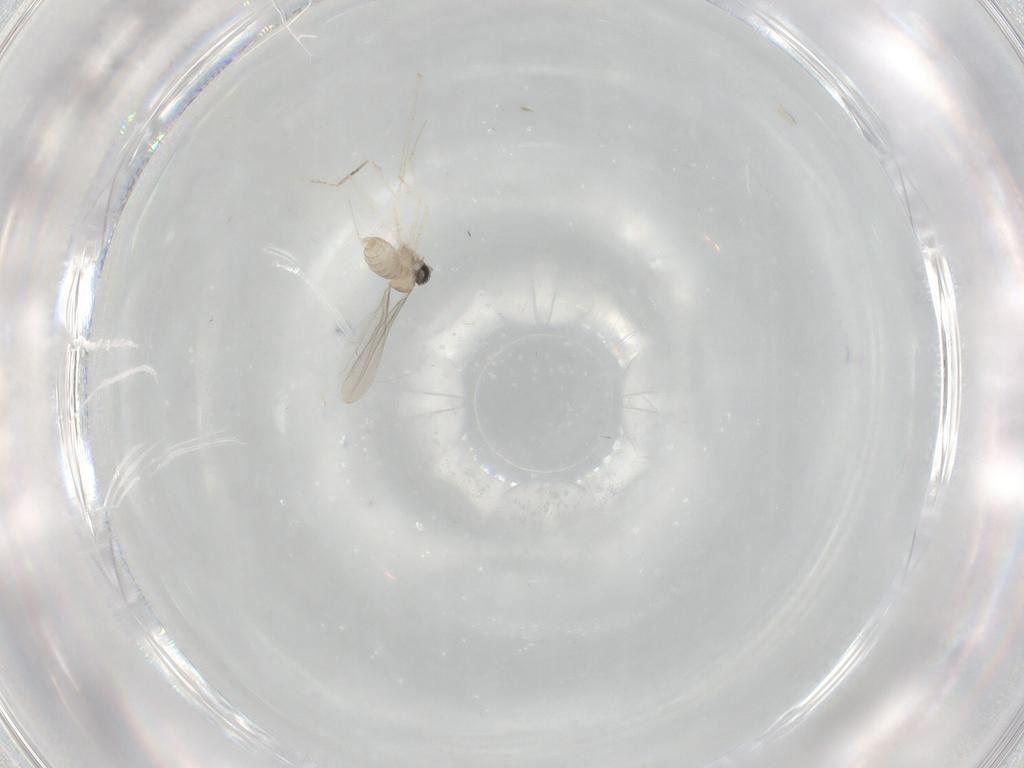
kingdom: Animalia
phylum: Arthropoda
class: Insecta
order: Diptera
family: Cecidomyiidae
